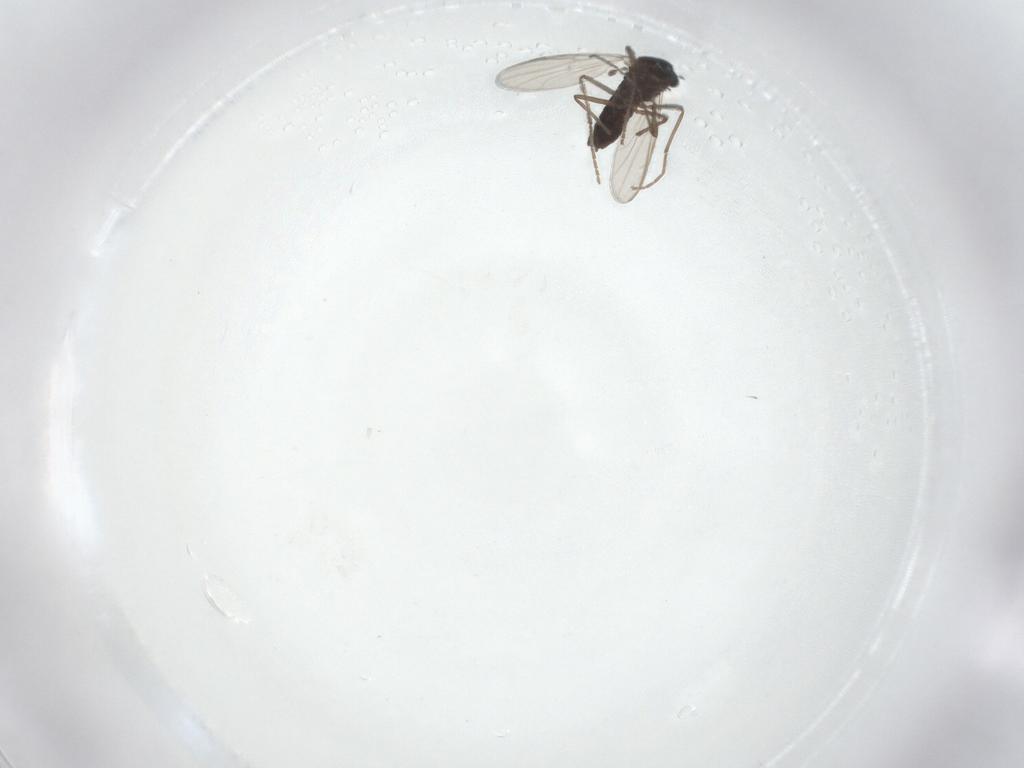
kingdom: Animalia
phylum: Arthropoda
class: Insecta
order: Diptera
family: Chironomidae
